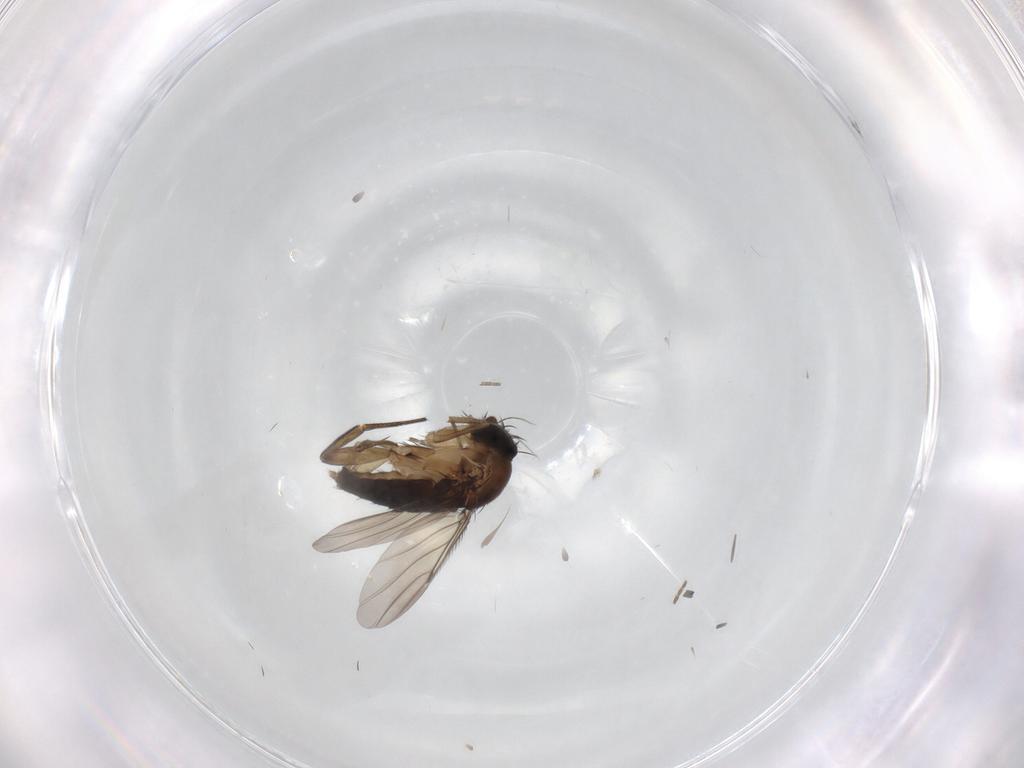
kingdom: Animalia
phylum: Arthropoda
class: Insecta
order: Diptera
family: Phoridae
